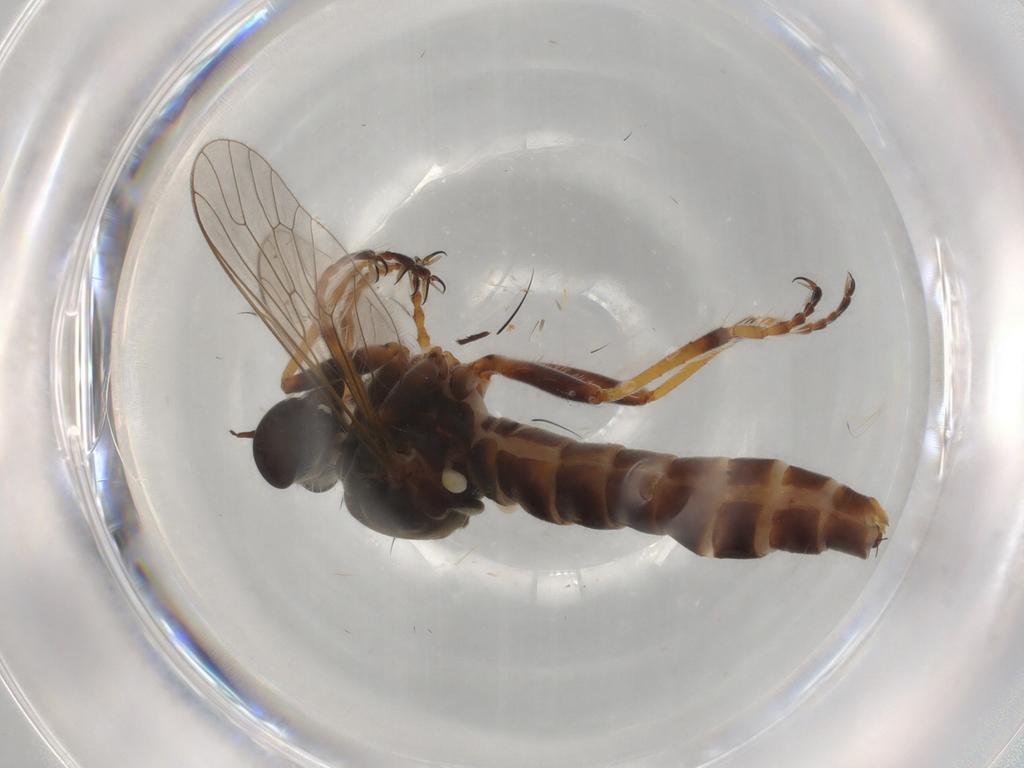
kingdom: Animalia
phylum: Arthropoda
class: Insecta
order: Diptera
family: Asilidae
